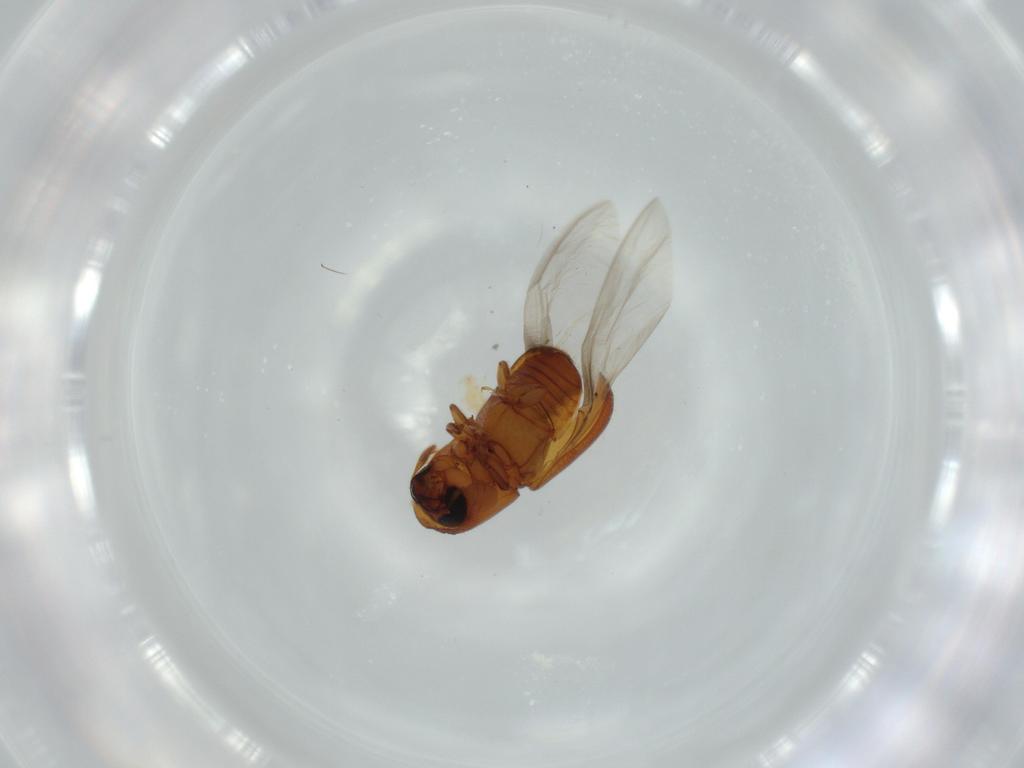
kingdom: Animalia
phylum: Arthropoda
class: Insecta
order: Coleoptera
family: Curculionidae
